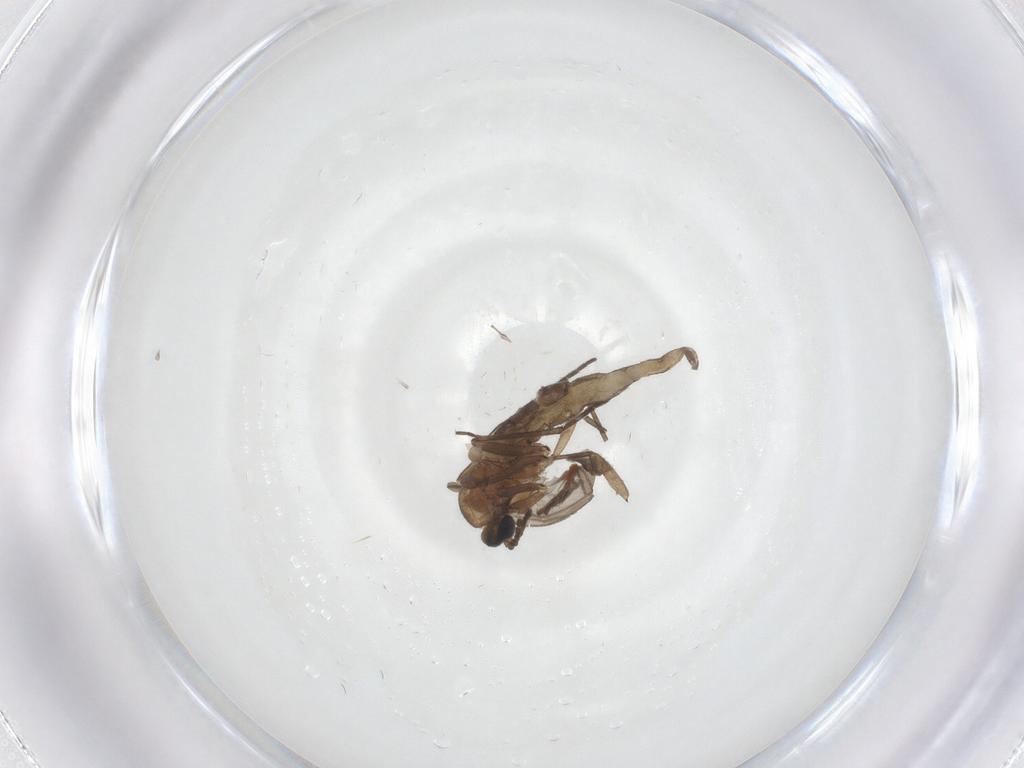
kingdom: Animalia
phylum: Arthropoda
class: Insecta
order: Diptera
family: Sciaridae
